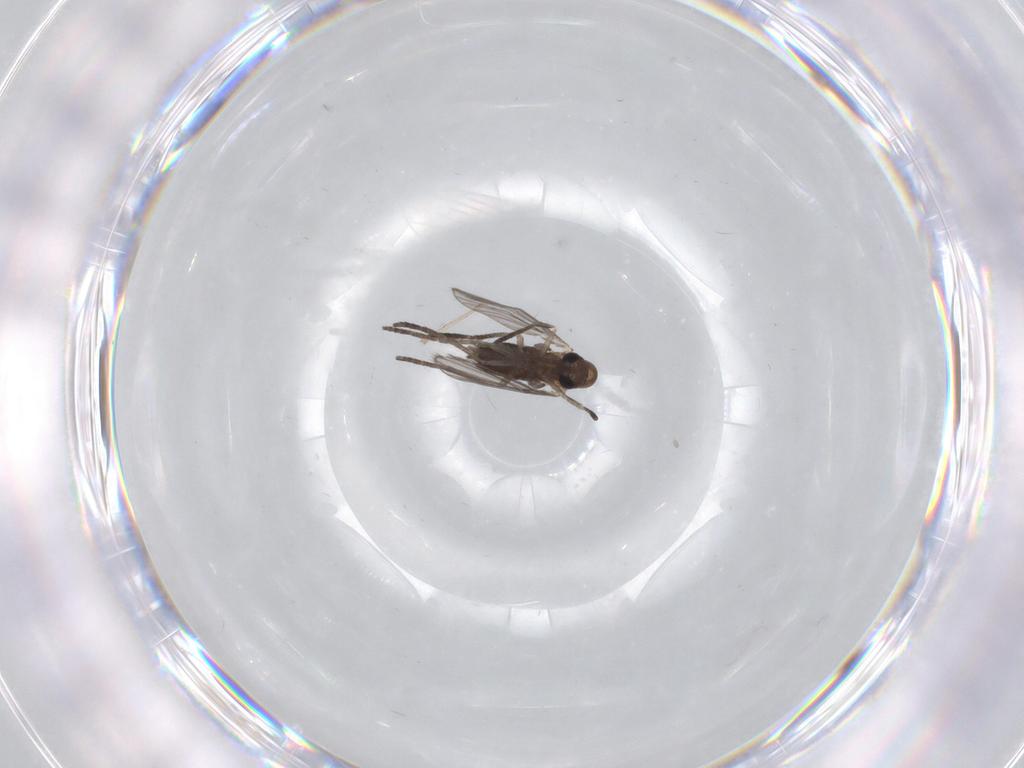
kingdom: Animalia
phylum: Arthropoda
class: Insecta
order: Diptera
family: Cecidomyiidae
